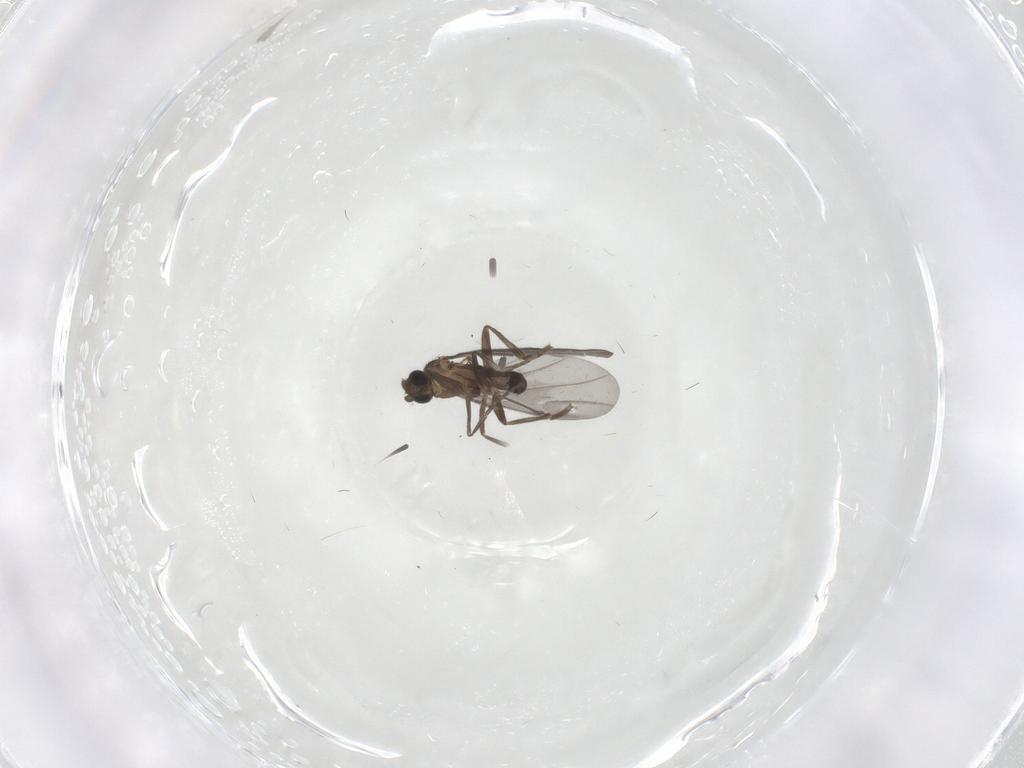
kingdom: Animalia
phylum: Arthropoda
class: Insecta
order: Diptera
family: Phoridae
